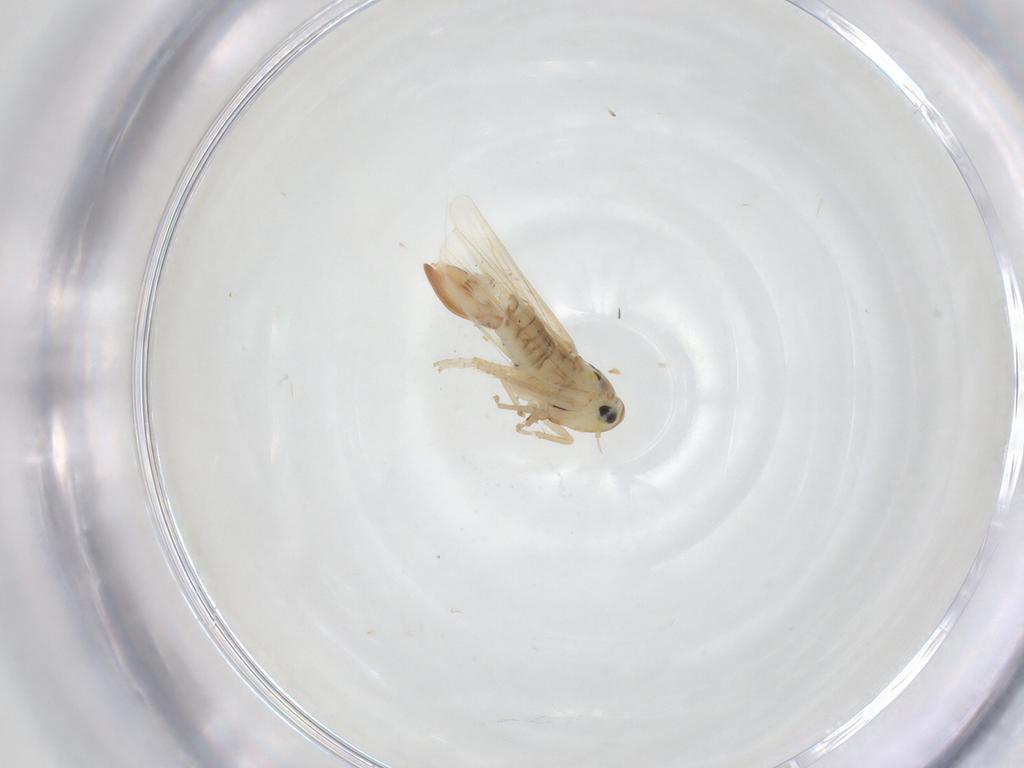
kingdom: Animalia
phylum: Arthropoda
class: Insecta
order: Hemiptera
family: Cicadellidae
